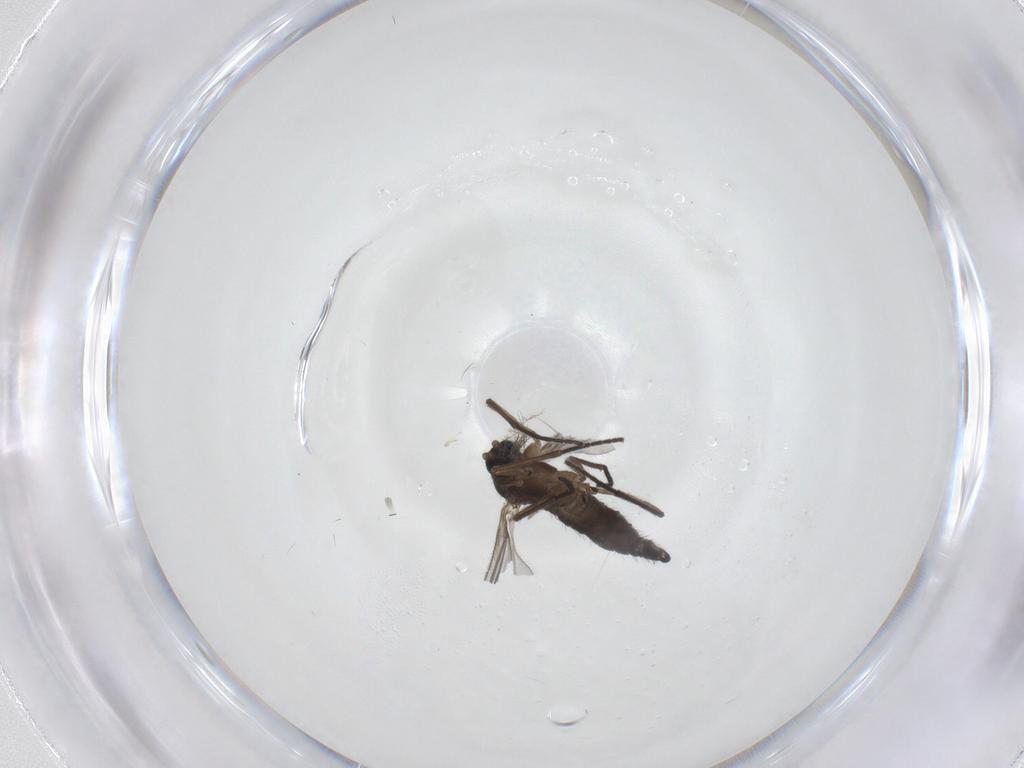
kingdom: Animalia
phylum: Arthropoda
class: Insecta
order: Diptera
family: Sciaridae
